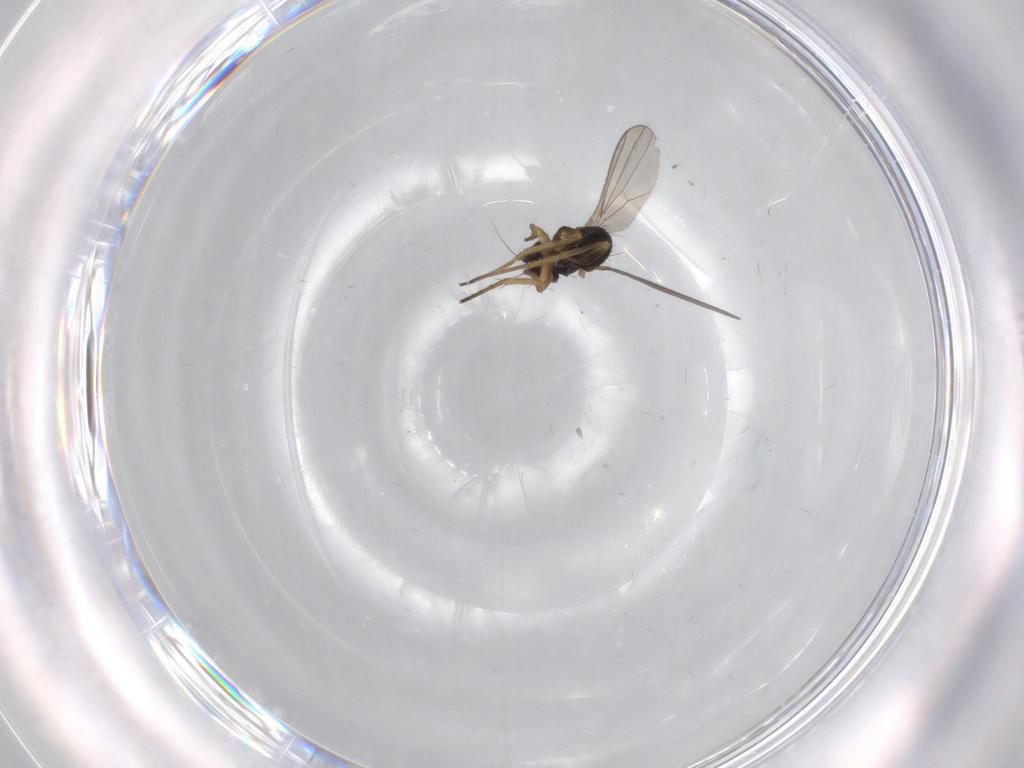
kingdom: Animalia
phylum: Arthropoda
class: Insecta
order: Diptera
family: Dolichopodidae
